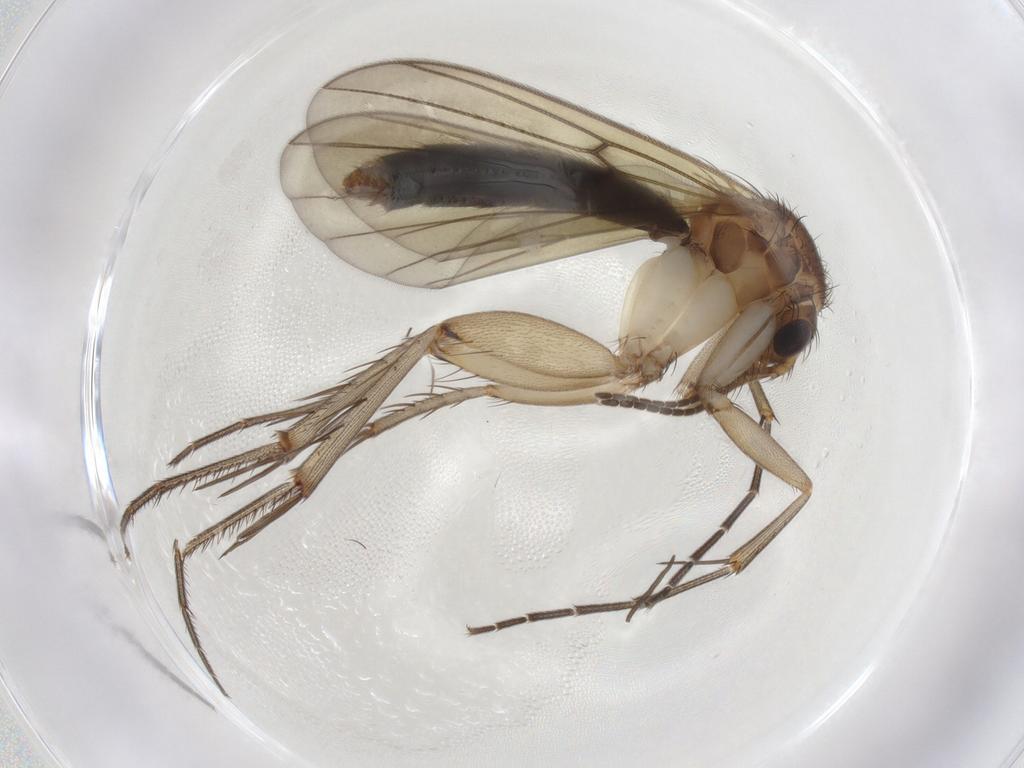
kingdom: Animalia
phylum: Arthropoda
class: Insecta
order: Diptera
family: Mycetophilidae
